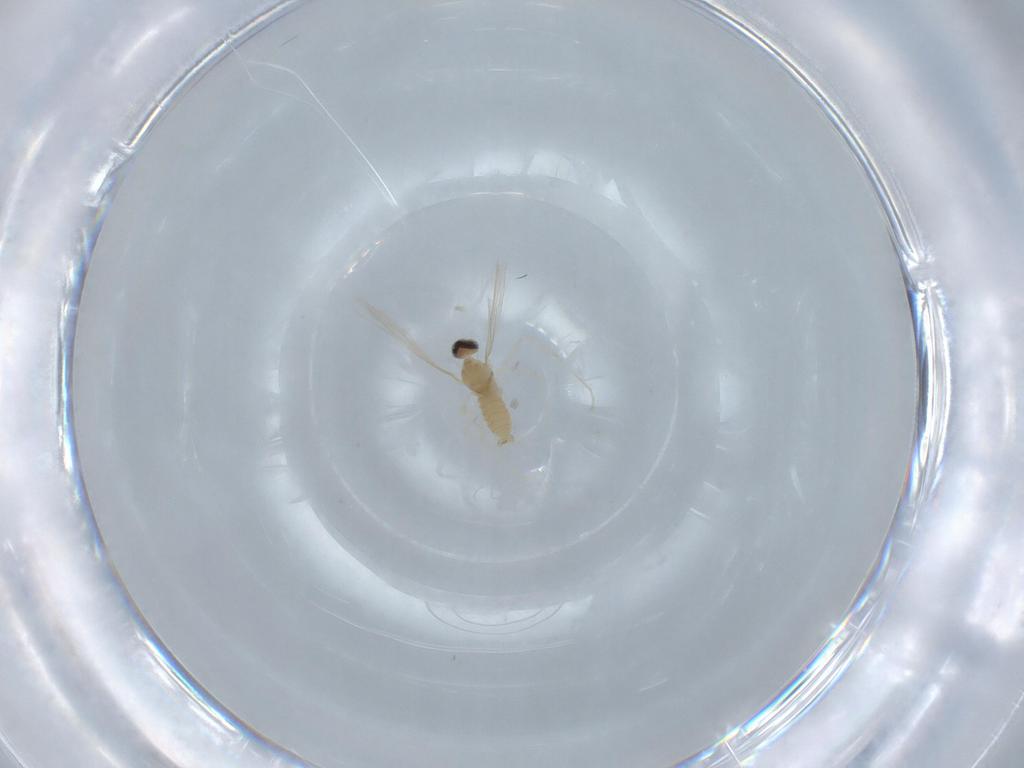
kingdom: Animalia
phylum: Arthropoda
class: Insecta
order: Diptera
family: Cecidomyiidae
